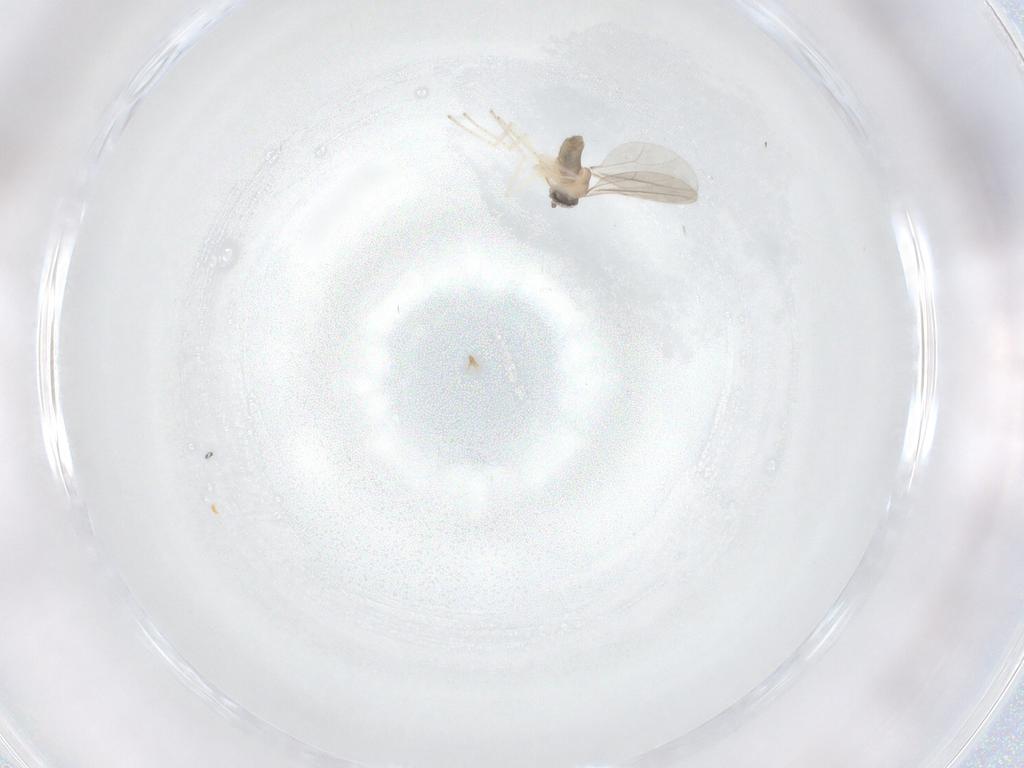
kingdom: Animalia
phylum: Arthropoda
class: Insecta
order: Diptera
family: Cecidomyiidae
